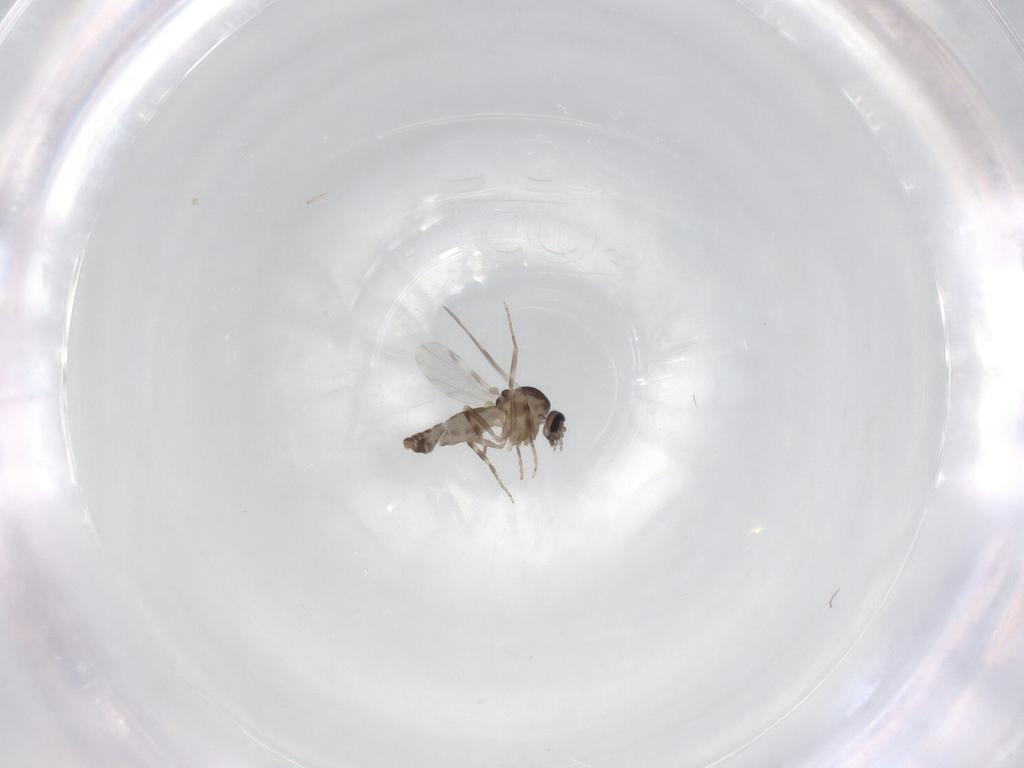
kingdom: Animalia
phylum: Arthropoda
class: Insecta
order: Diptera
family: Ceratopogonidae
